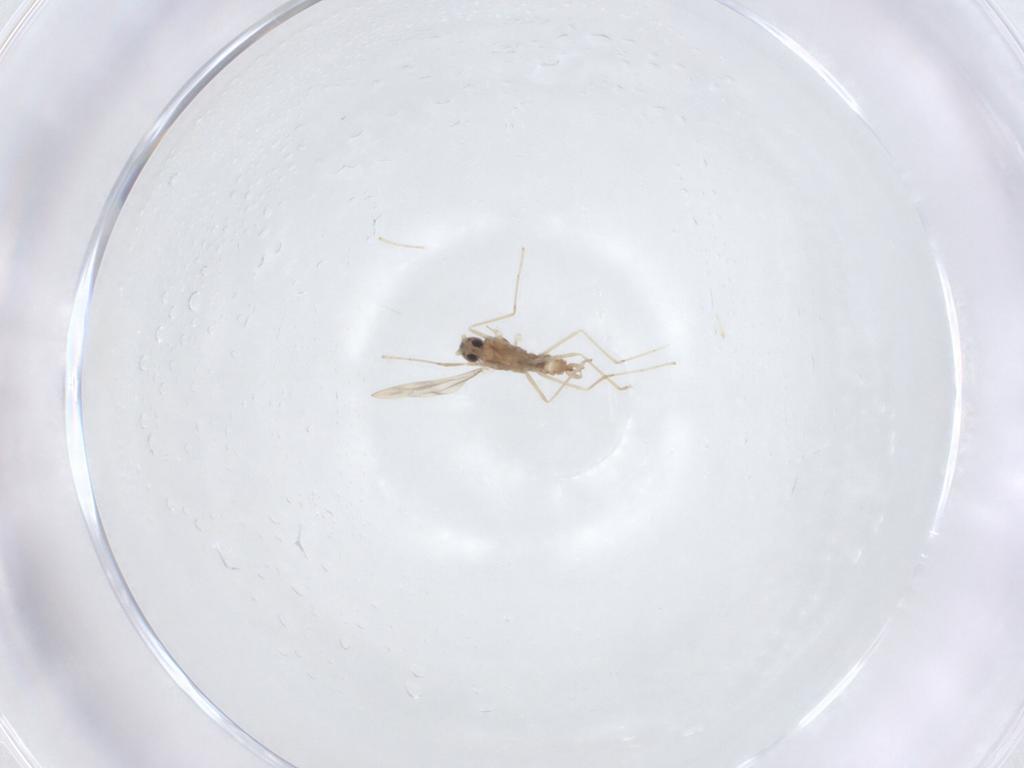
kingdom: Animalia
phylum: Arthropoda
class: Insecta
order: Diptera
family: Cecidomyiidae
